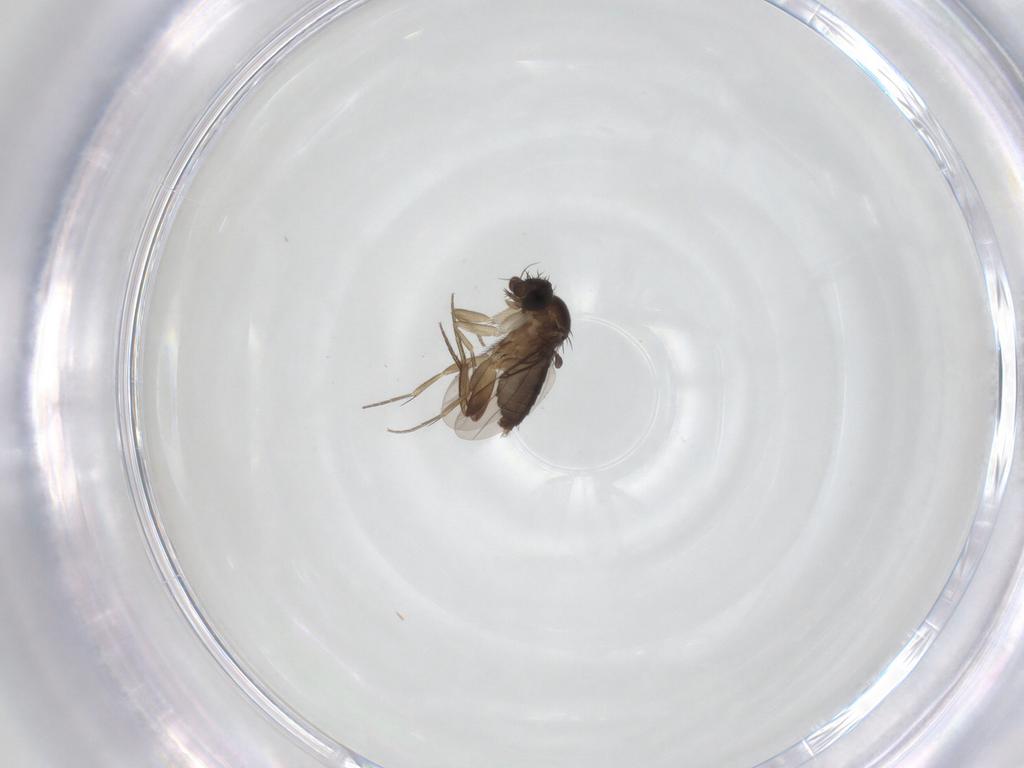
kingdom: Animalia
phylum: Arthropoda
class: Insecta
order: Diptera
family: Phoridae
